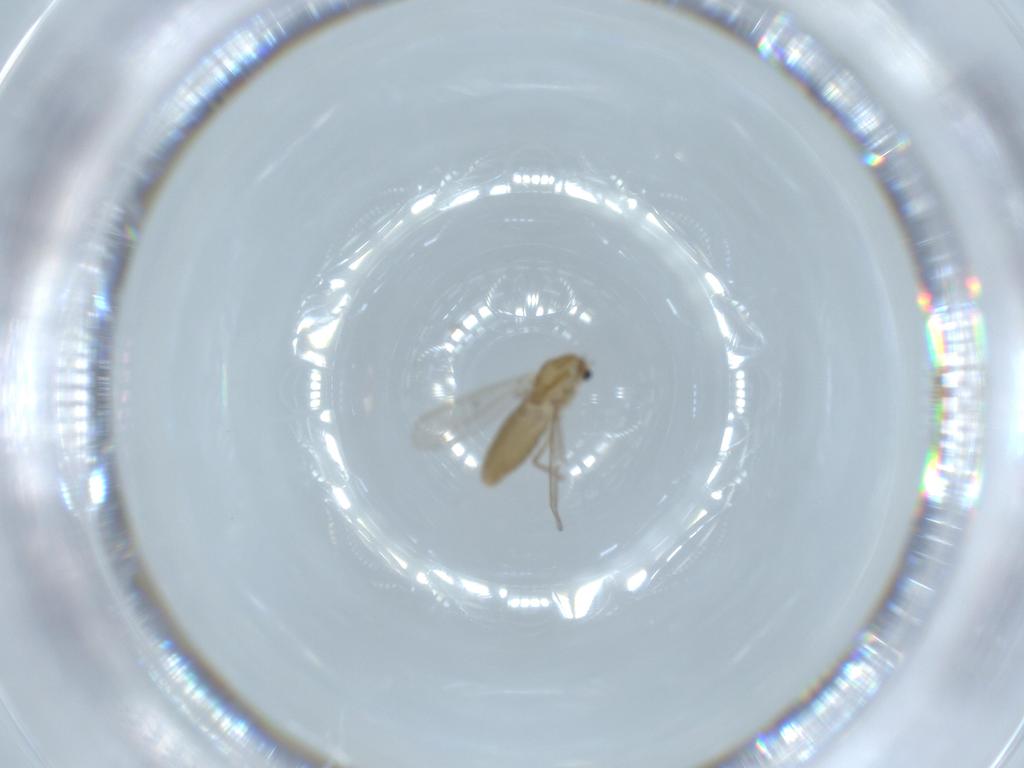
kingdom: Animalia
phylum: Arthropoda
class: Insecta
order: Diptera
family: Chironomidae
